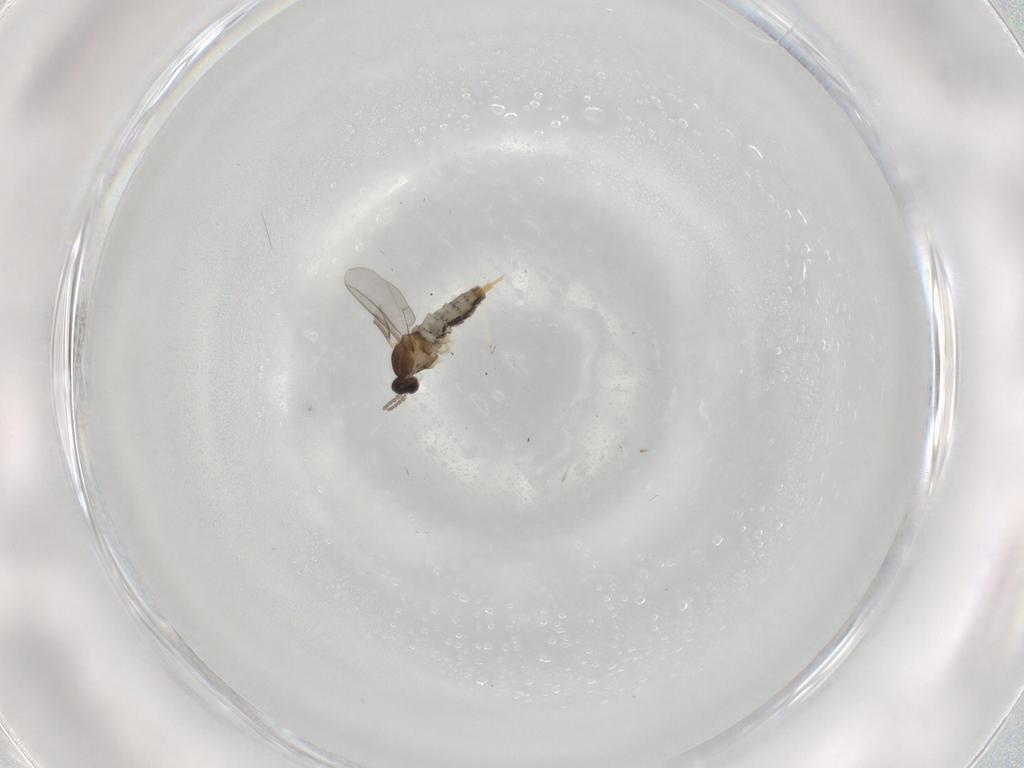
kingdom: Animalia
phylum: Arthropoda
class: Insecta
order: Diptera
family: Cecidomyiidae
